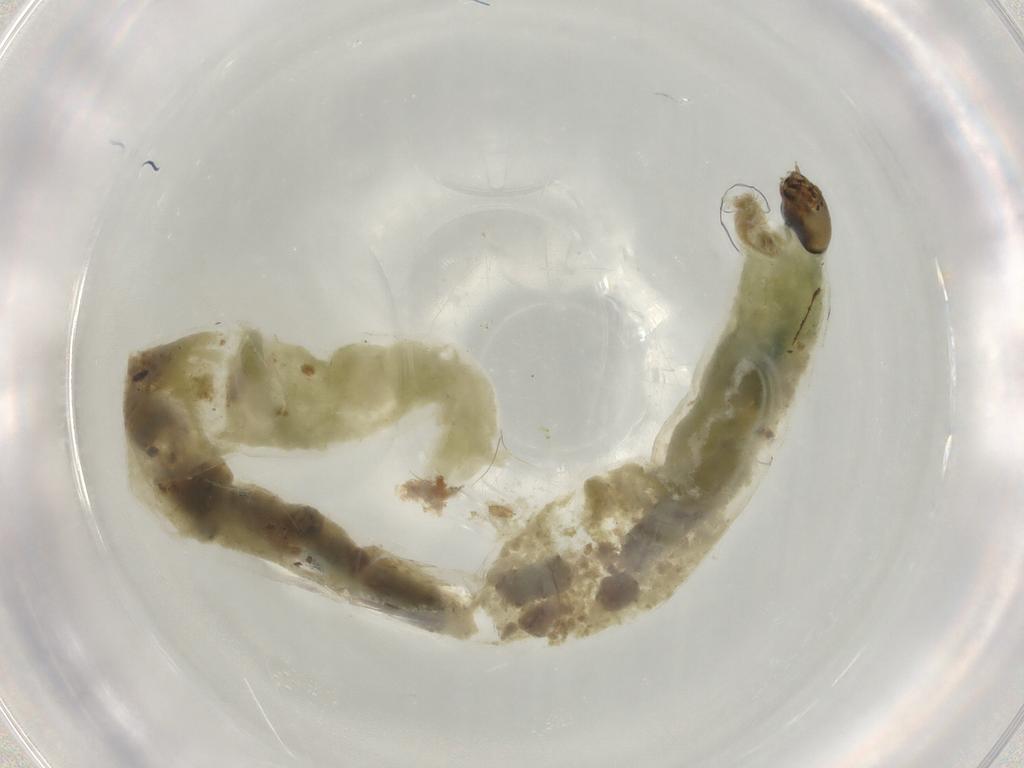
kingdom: Animalia
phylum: Arthropoda
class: Insecta
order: Diptera
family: Chironomidae
